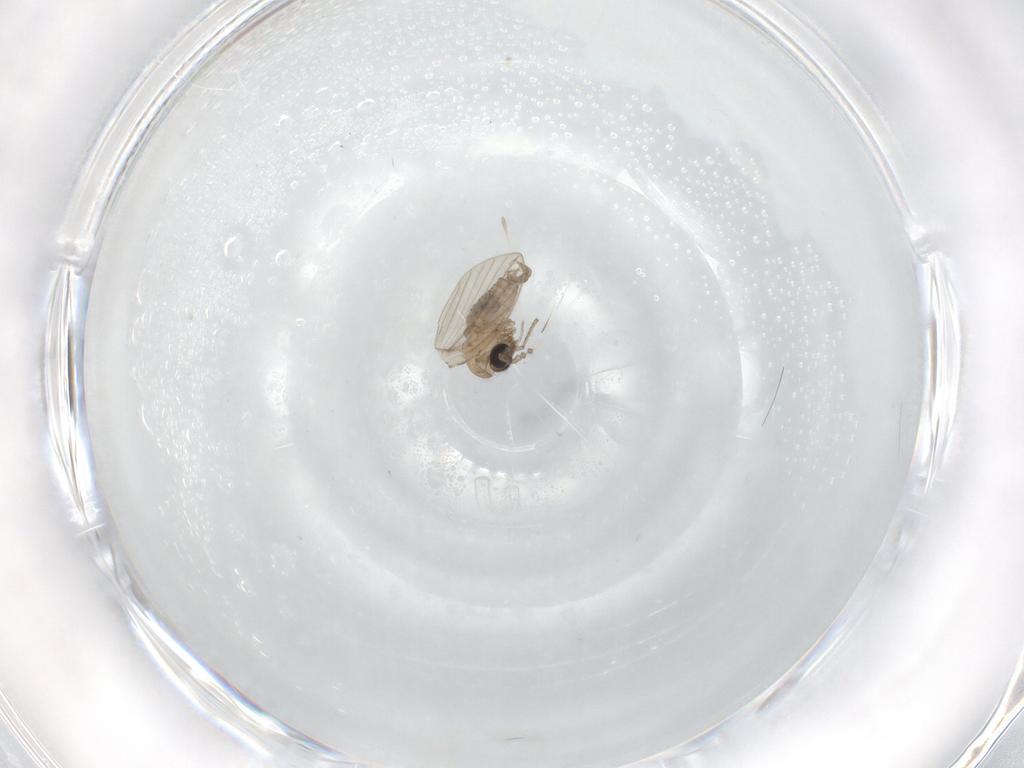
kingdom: Animalia
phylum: Arthropoda
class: Insecta
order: Diptera
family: Psychodidae
